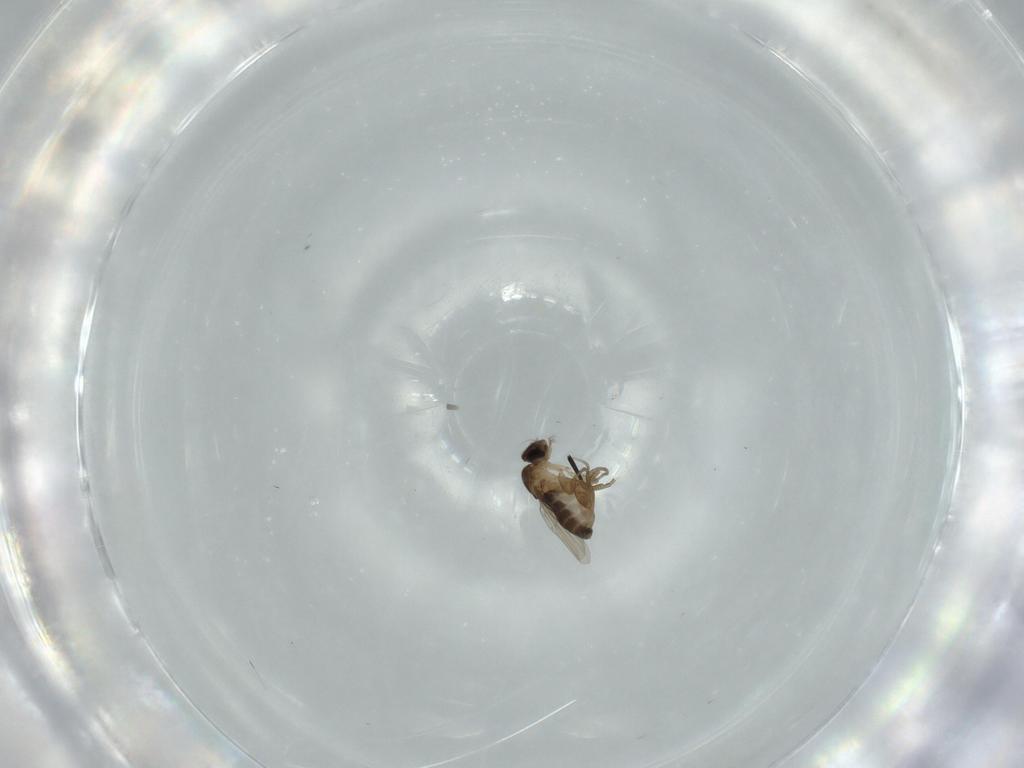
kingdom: Animalia
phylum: Arthropoda
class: Insecta
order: Diptera
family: Phoridae
